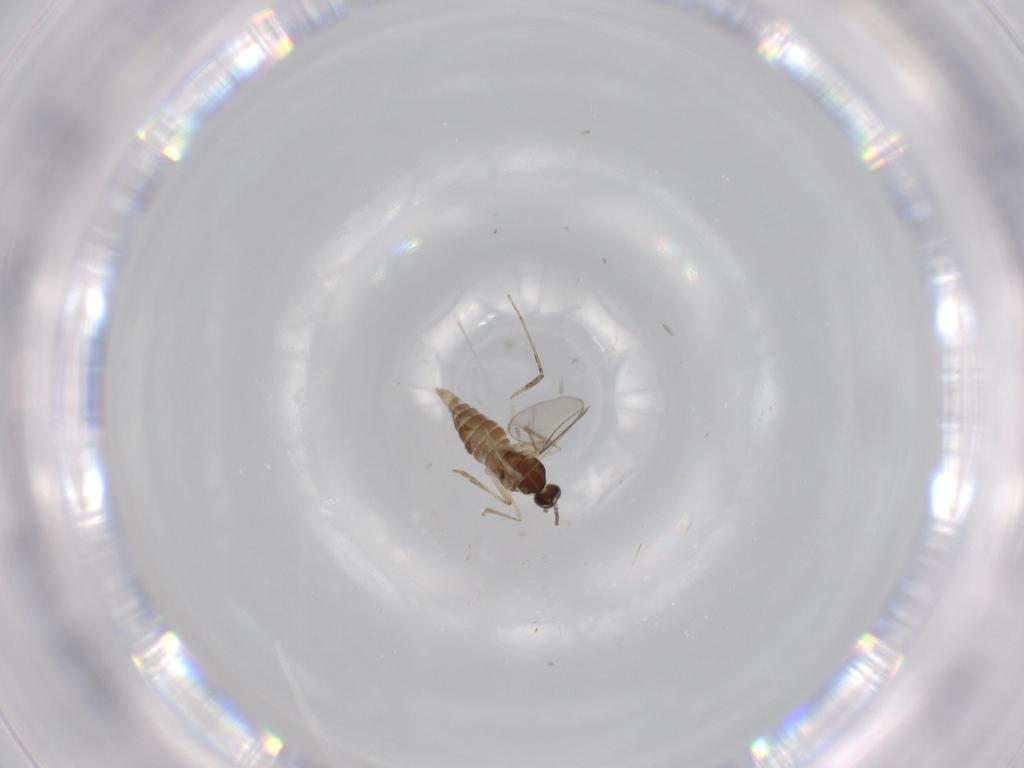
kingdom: Animalia
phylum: Arthropoda
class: Insecta
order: Diptera
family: Cecidomyiidae
